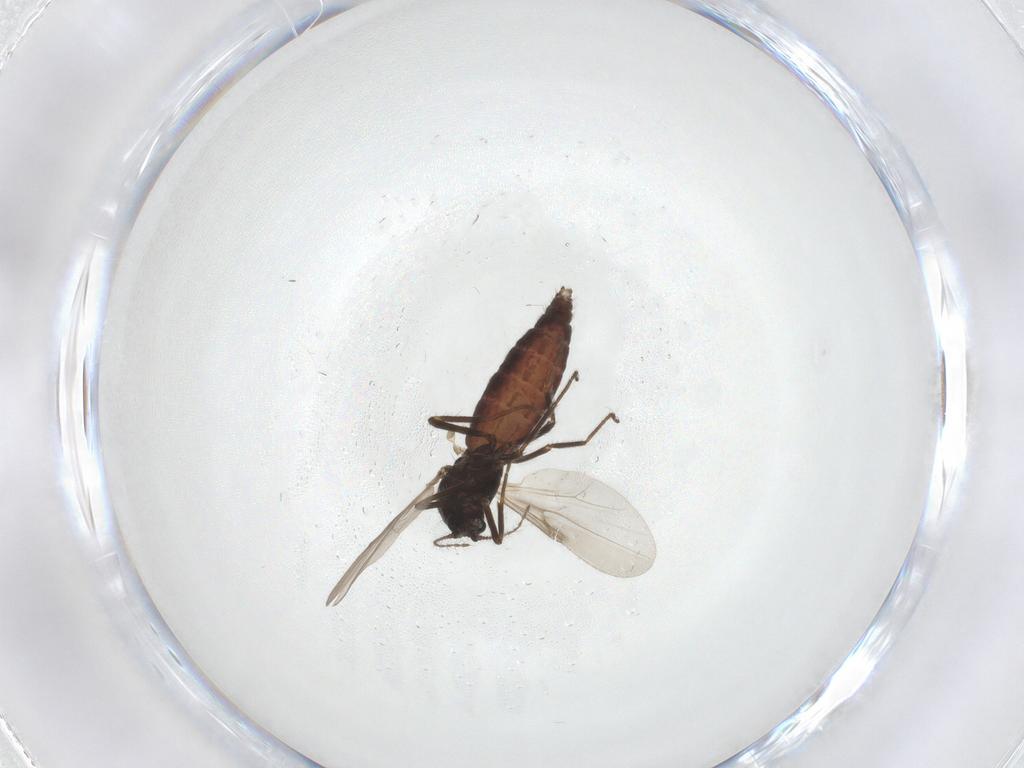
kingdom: Animalia
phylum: Arthropoda
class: Insecta
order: Diptera
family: Ceratopogonidae
